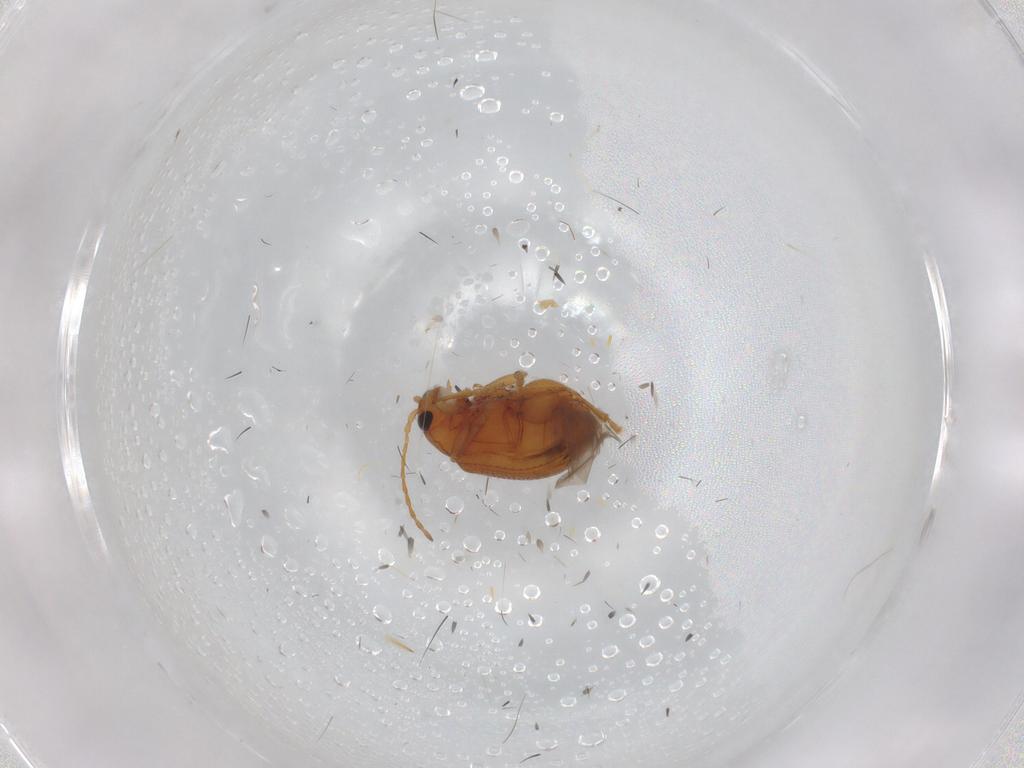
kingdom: Animalia
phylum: Arthropoda
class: Insecta
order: Coleoptera
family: Chrysomelidae
